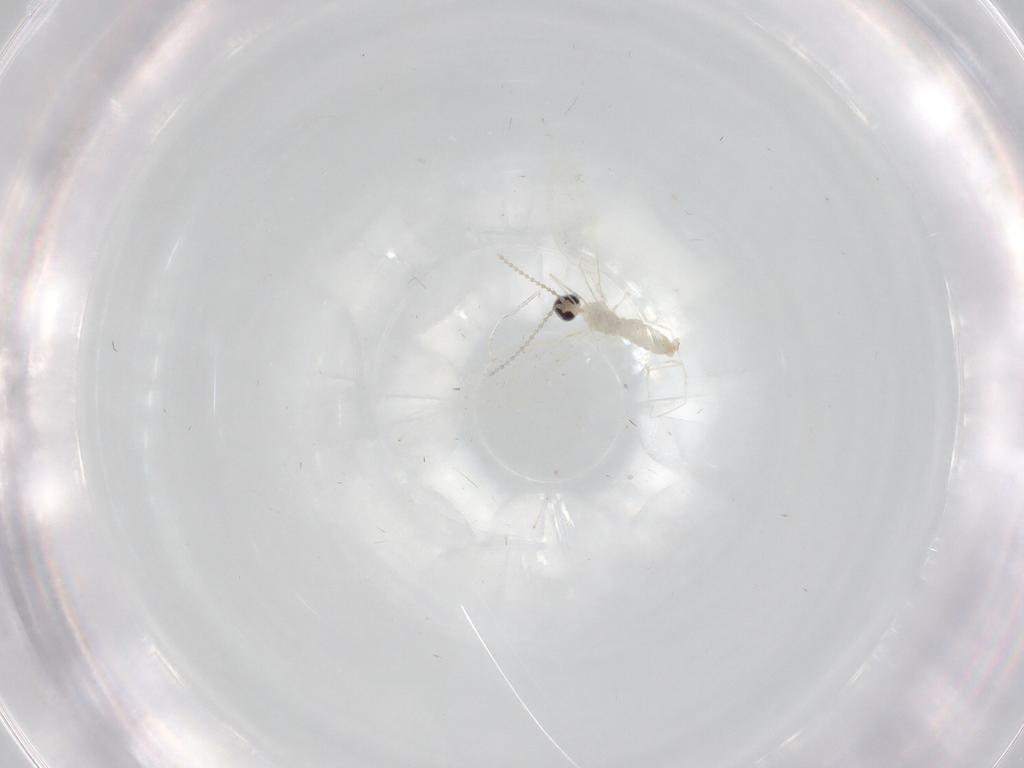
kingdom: Animalia
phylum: Arthropoda
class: Insecta
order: Diptera
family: Cecidomyiidae
